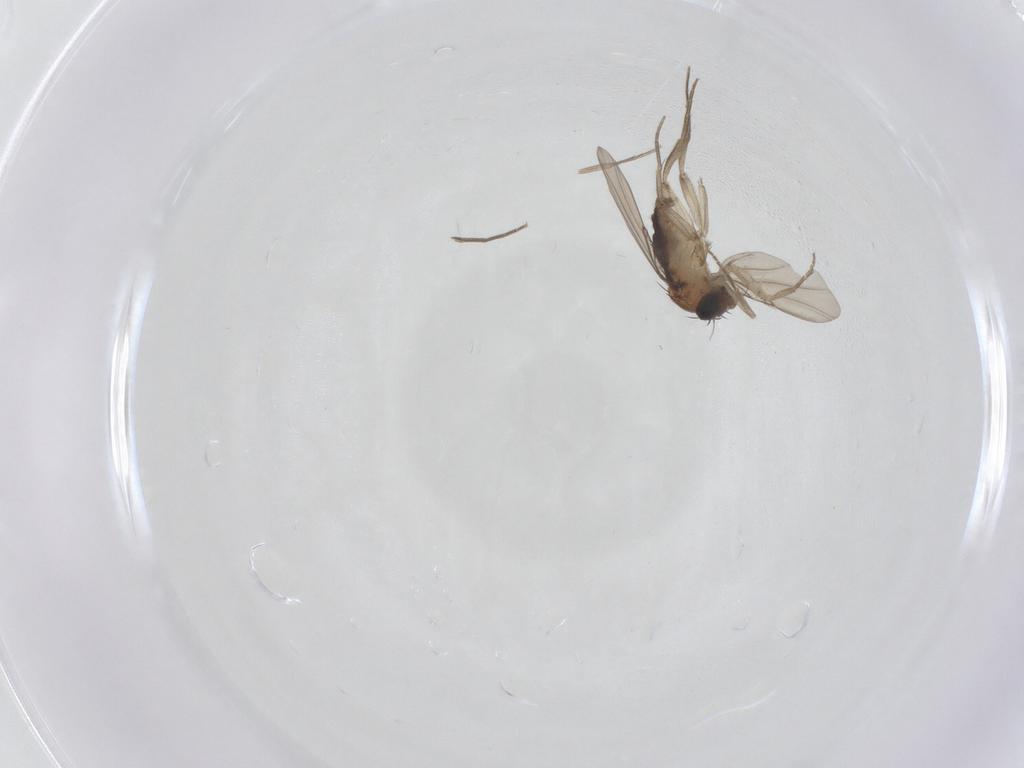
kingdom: Animalia
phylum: Arthropoda
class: Insecta
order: Diptera
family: Phoridae
